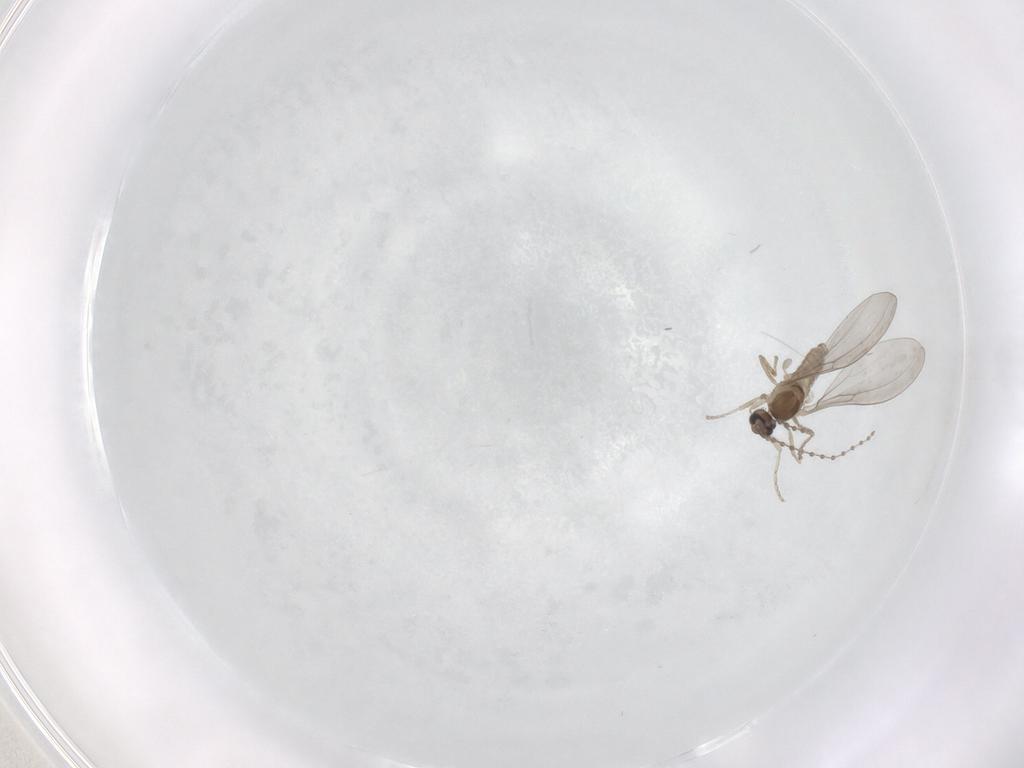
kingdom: Animalia
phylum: Arthropoda
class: Insecta
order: Diptera
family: Cecidomyiidae
